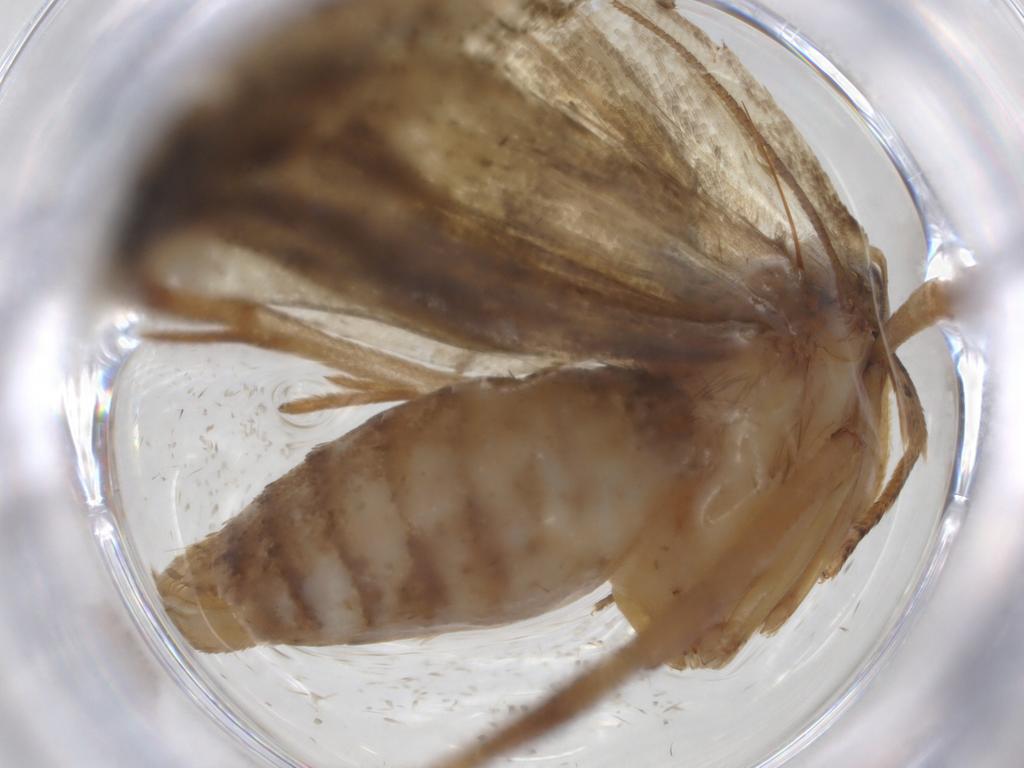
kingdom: Animalia
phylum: Arthropoda
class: Insecta
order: Lepidoptera
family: Tortricidae
